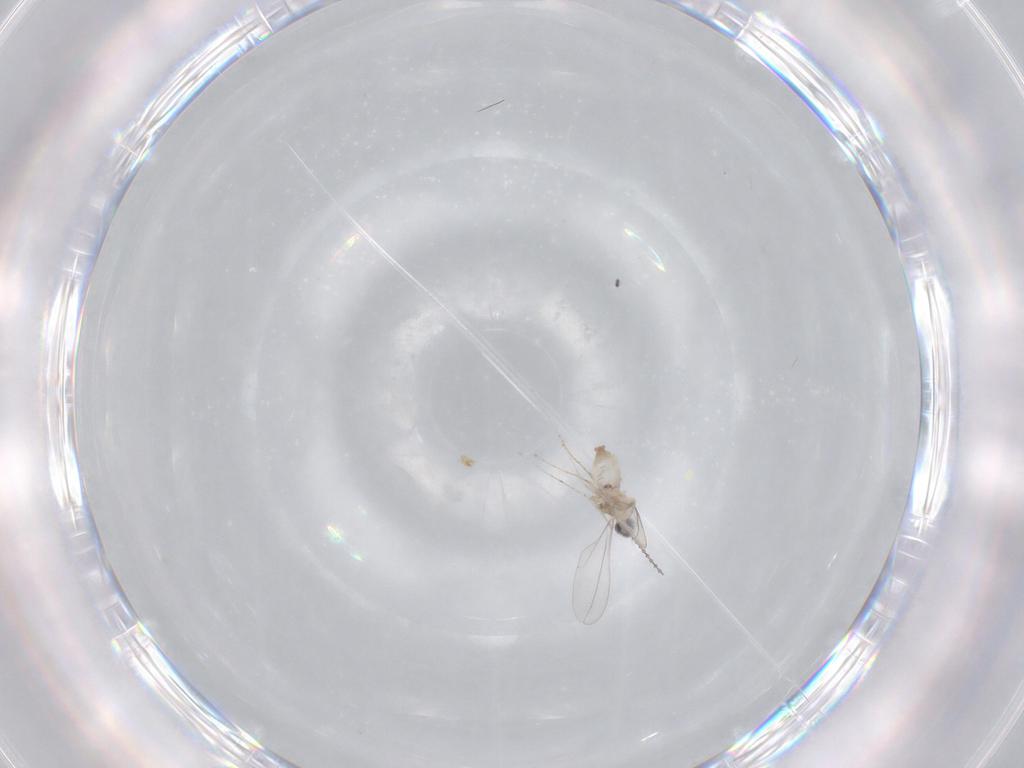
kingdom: Animalia
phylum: Arthropoda
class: Insecta
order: Diptera
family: Cecidomyiidae
